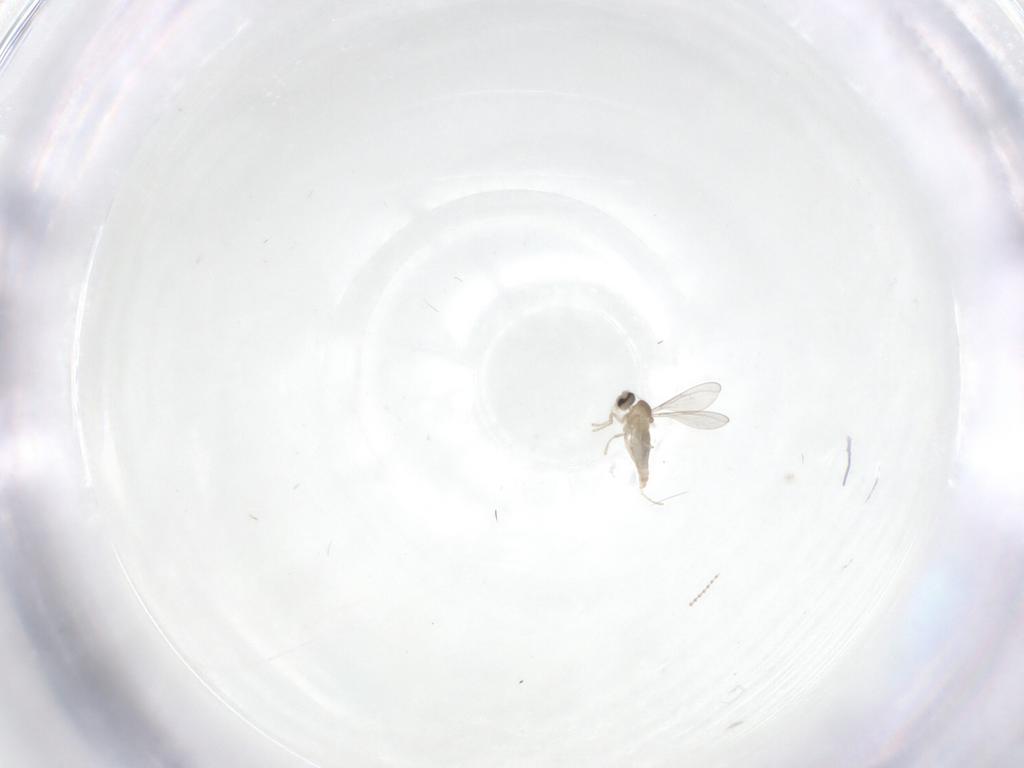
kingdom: Animalia
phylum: Arthropoda
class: Insecta
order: Diptera
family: Cecidomyiidae
